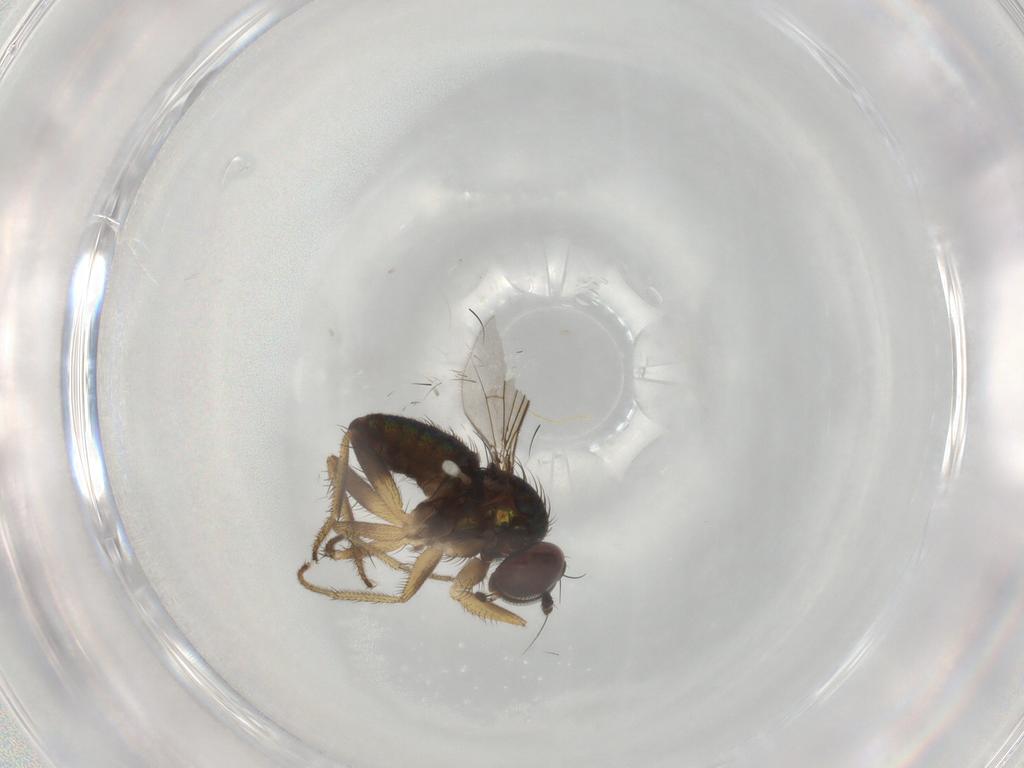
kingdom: Animalia
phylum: Arthropoda
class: Insecta
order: Diptera
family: Dolichopodidae
